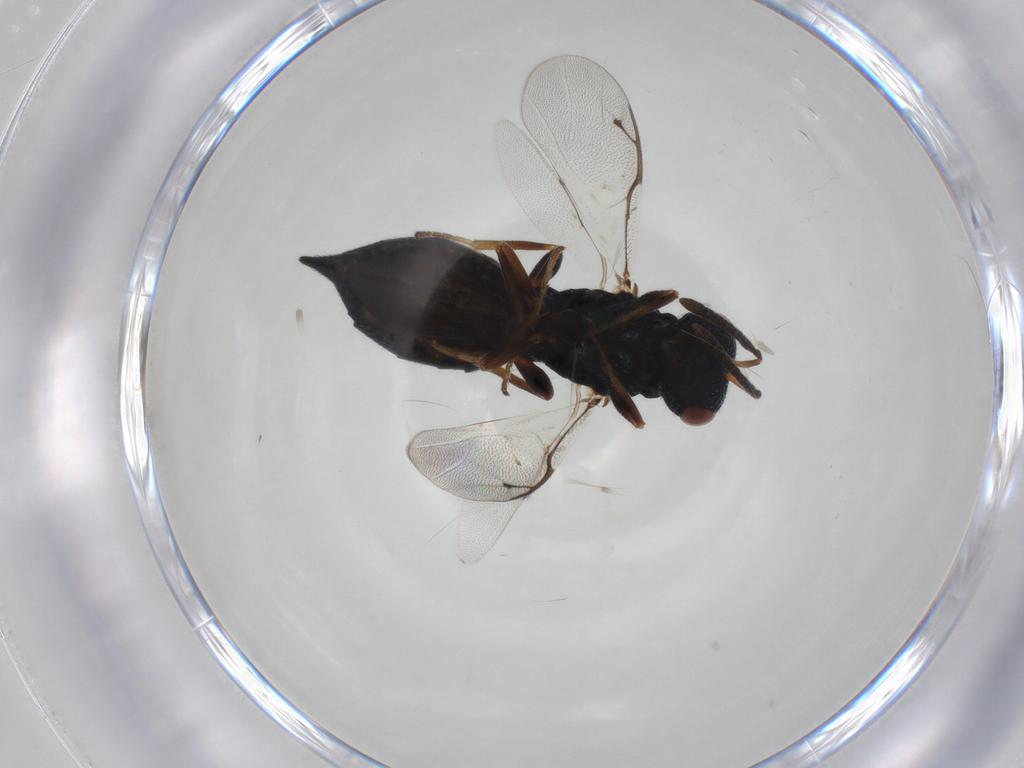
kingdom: Animalia
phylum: Arthropoda
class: Insecta
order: Hymenoptera
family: Pteromalidae
